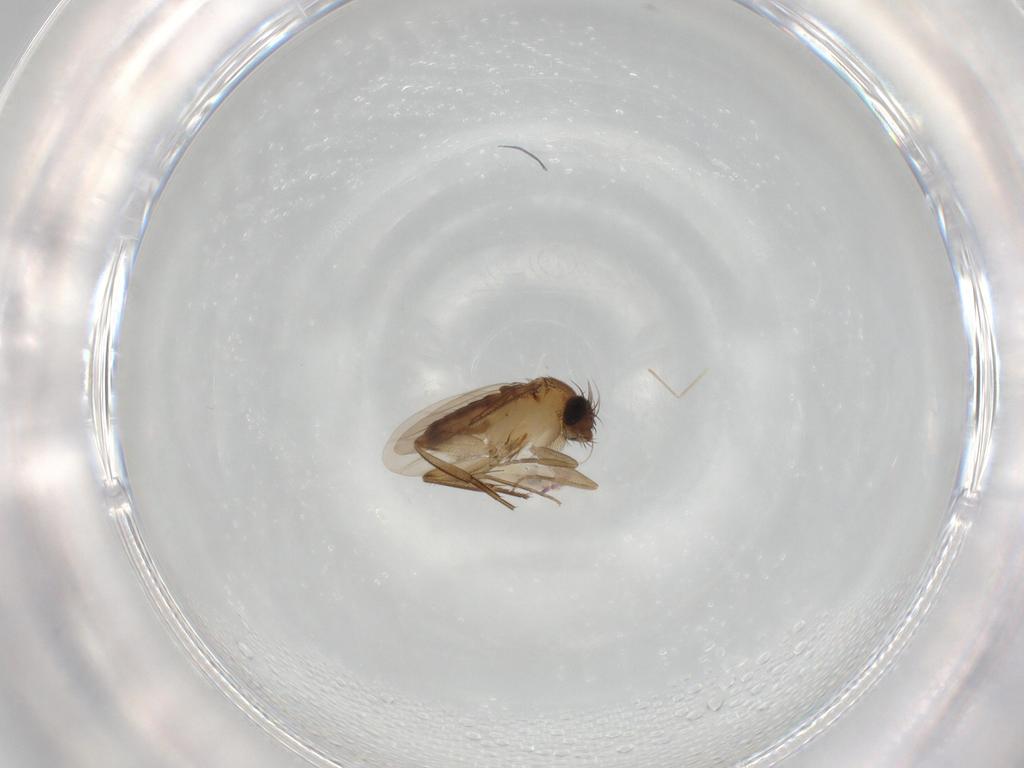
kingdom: Animalia
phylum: Arthropoda
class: Insecta
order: Diptera
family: Phoridae
